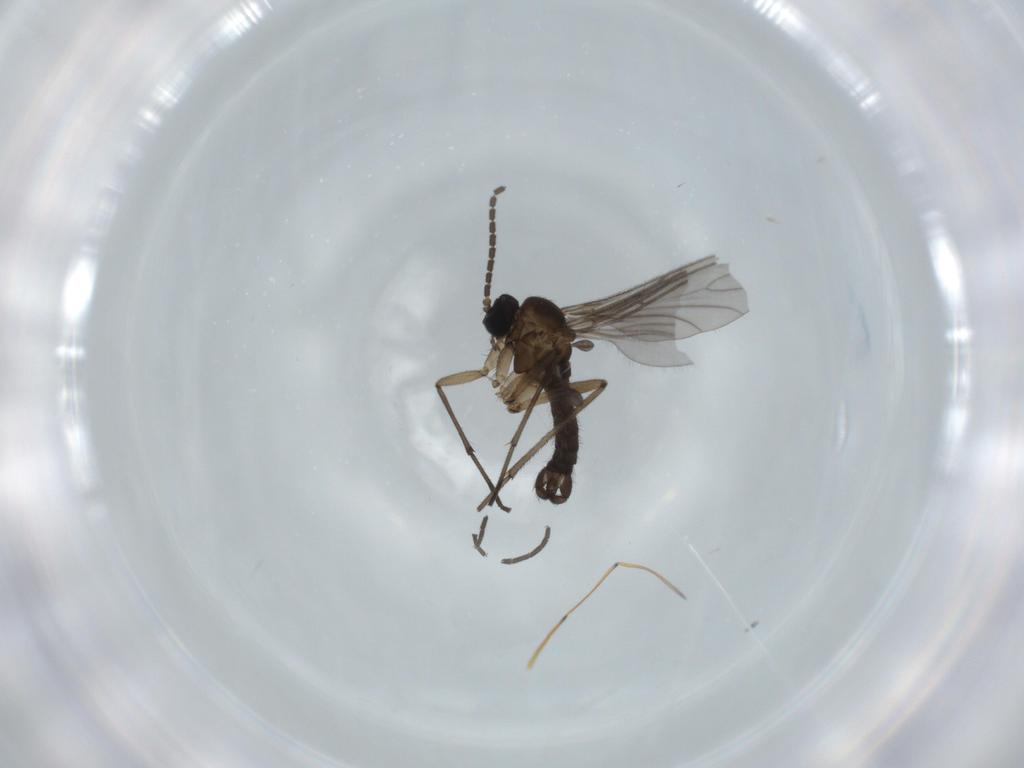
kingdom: Animalia
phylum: Arthropoda
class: Insecta
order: Diptera
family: Cecidomyiidae
